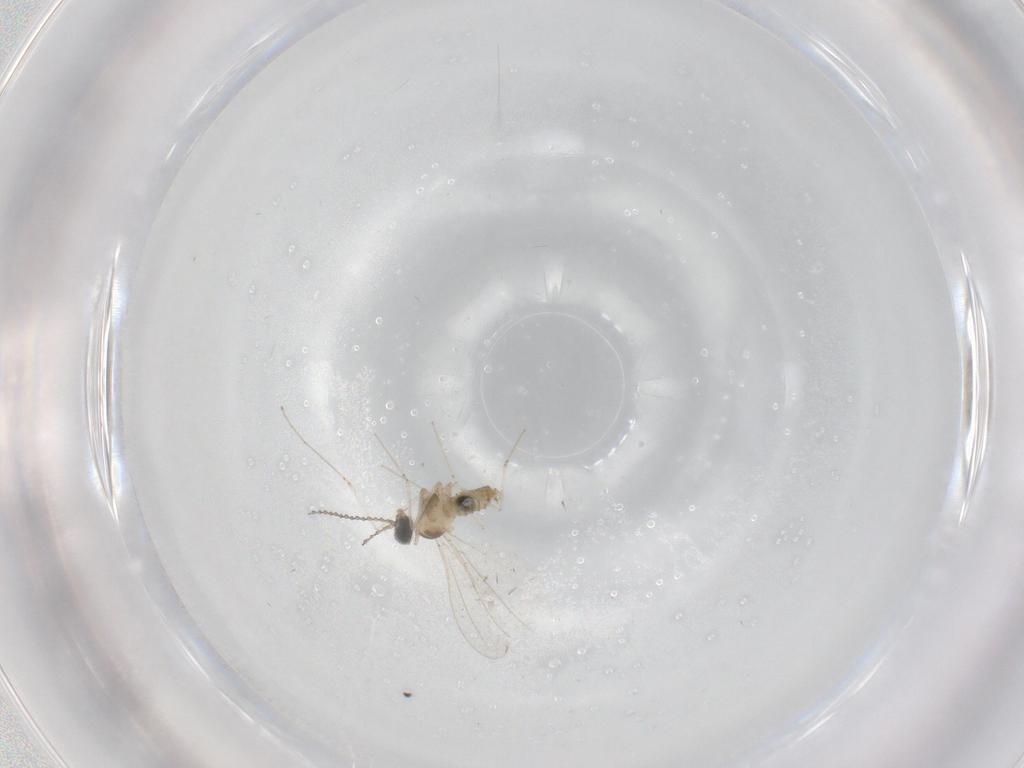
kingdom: Animalia
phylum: Arthropoda
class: Insecta
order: Diptera
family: Cecidomyiidae
